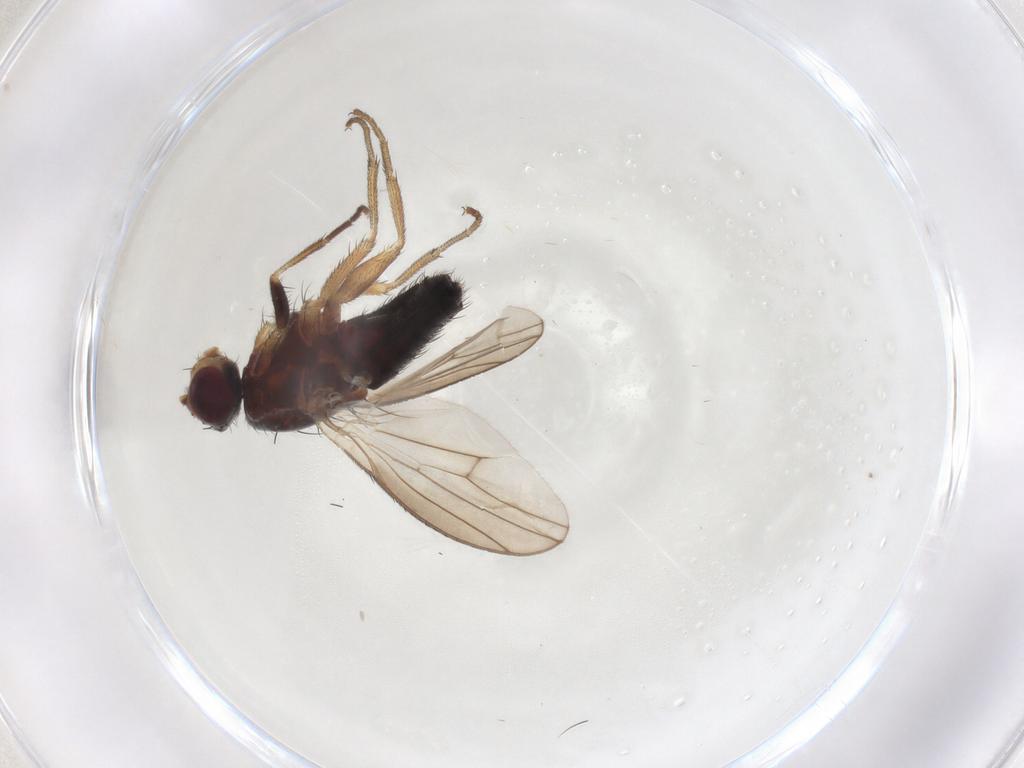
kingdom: Animalia
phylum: Arthropoda
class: Insecta
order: Diptera
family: Heleomyzidae
